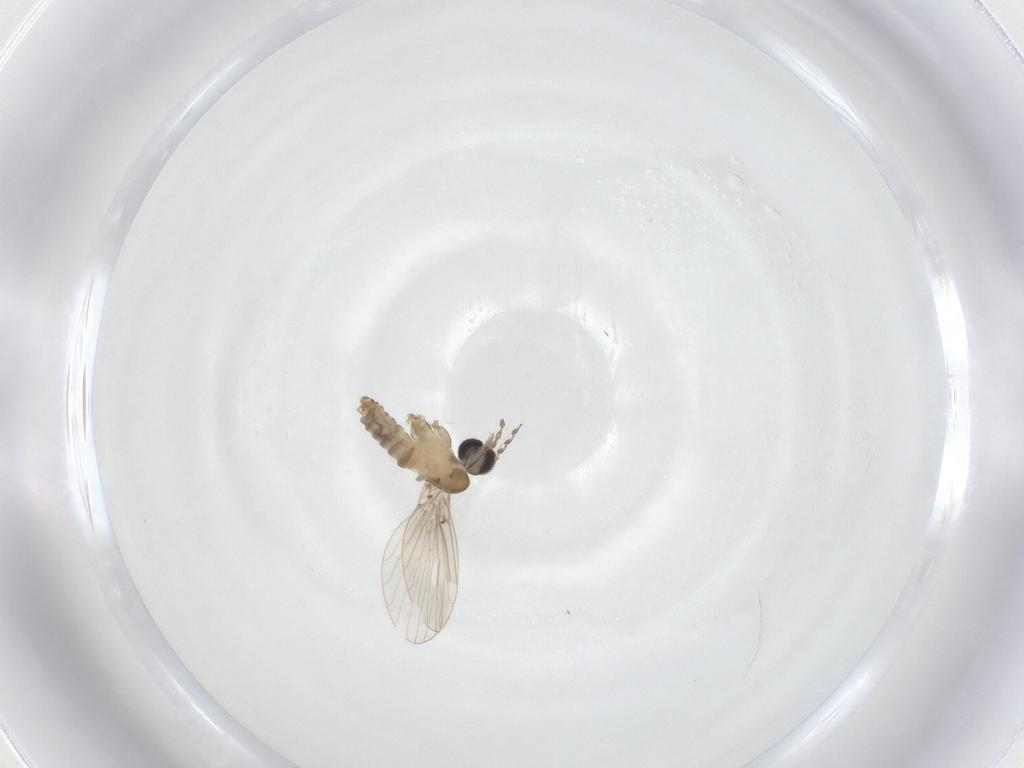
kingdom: Animalia
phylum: Arthropoda
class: Insecta
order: Diptera
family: Psychodidae
